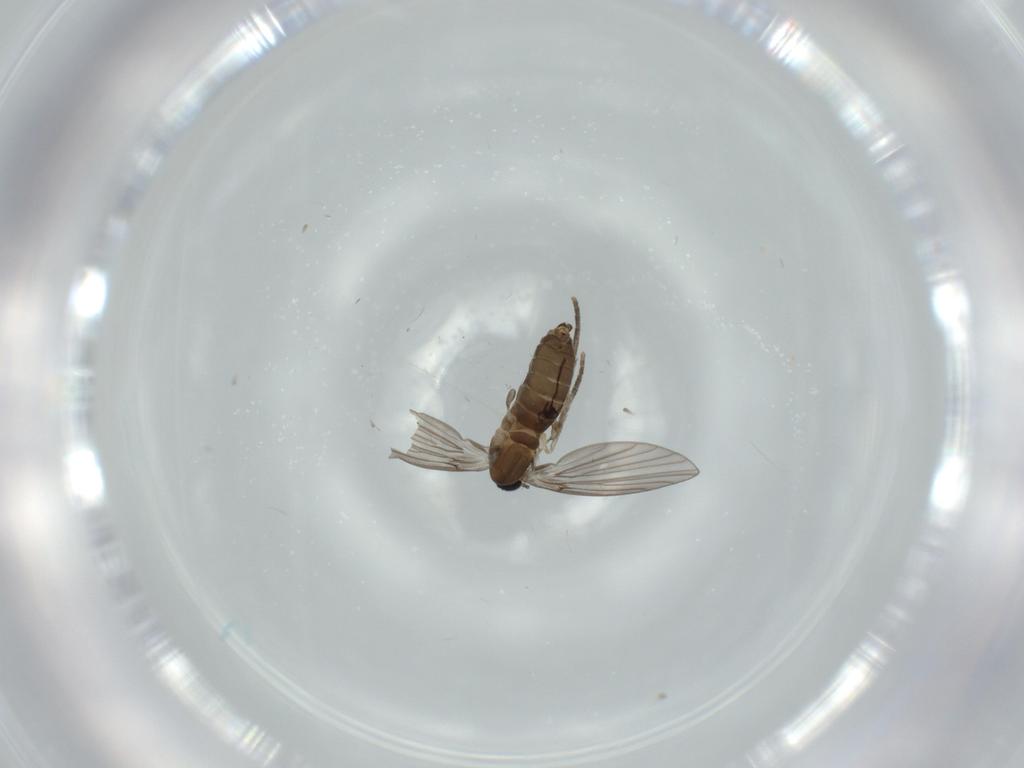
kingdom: Animalia
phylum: Arthropoda
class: Insecta
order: Diptera
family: Psychodidae
